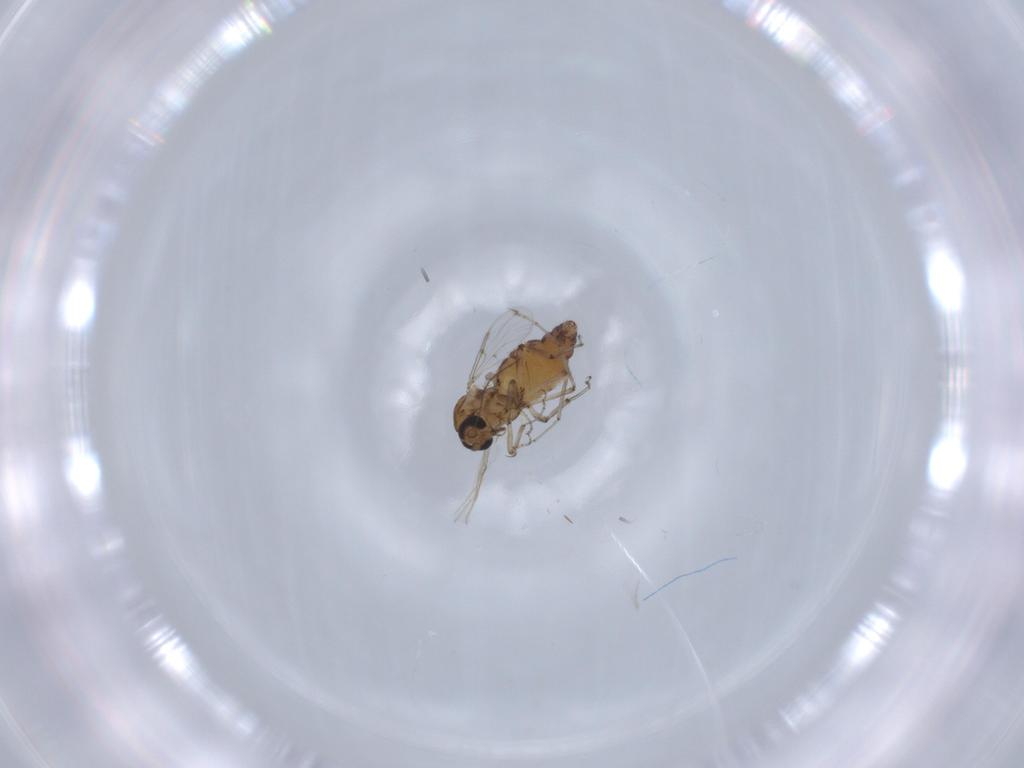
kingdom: Animalia
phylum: Arthropoda
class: Insecta
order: Diptera
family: Ceratopogonidae
